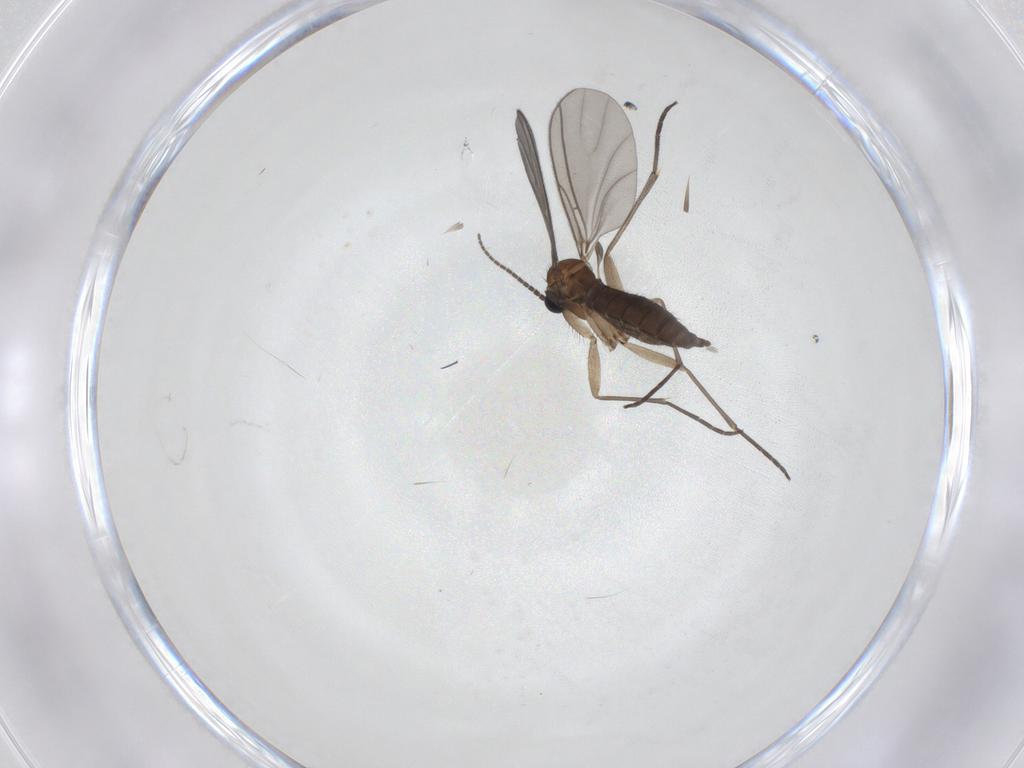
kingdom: Animalia
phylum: Arthropoda
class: Insecta
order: Diptera
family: Sciaridae
